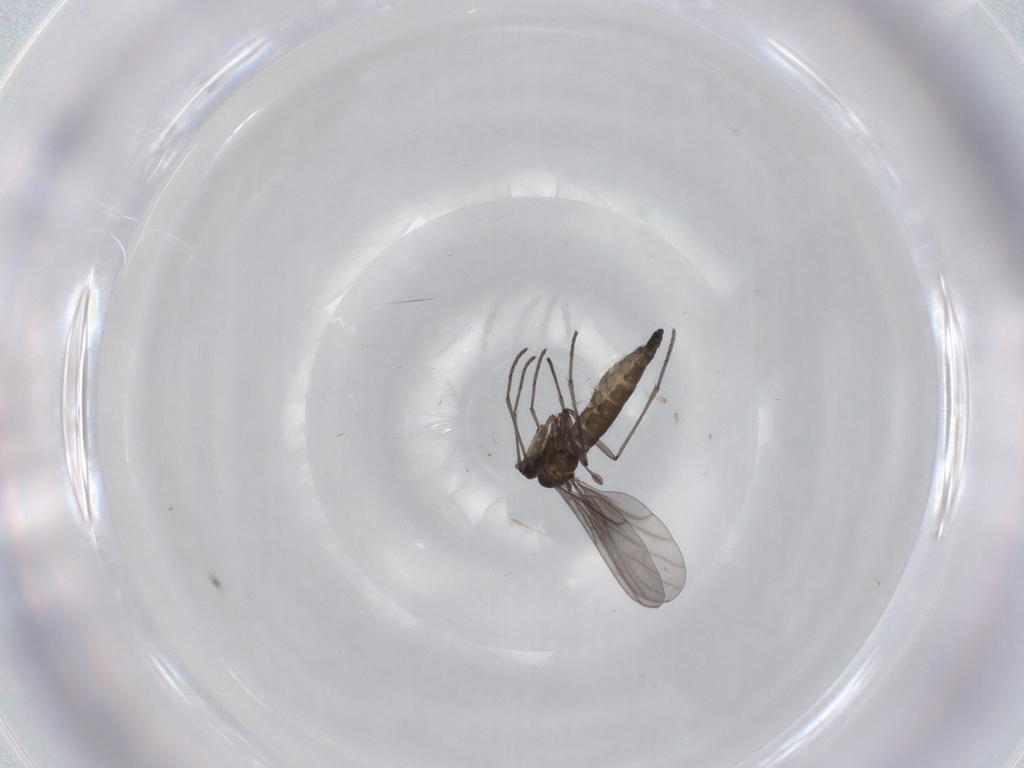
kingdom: Animalia
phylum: Arthropoda
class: Insecta
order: Diptera
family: Sciaridae
